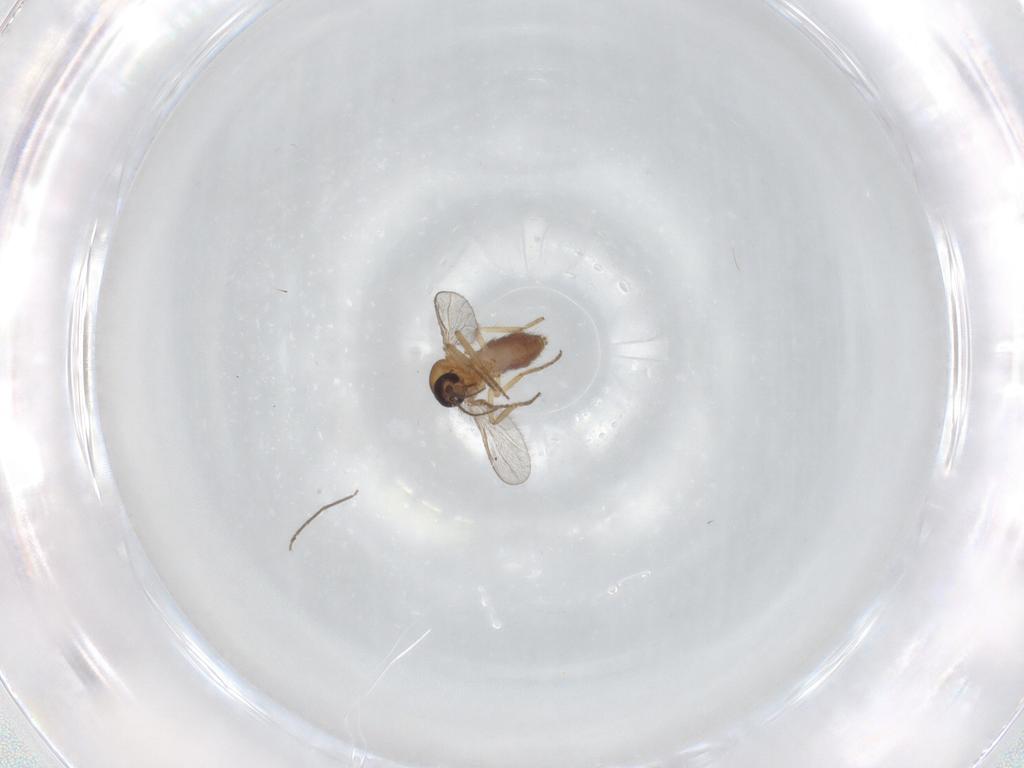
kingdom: Animalia
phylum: Arthropoda
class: Insecta
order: Diptera
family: Ceratopogonidae
